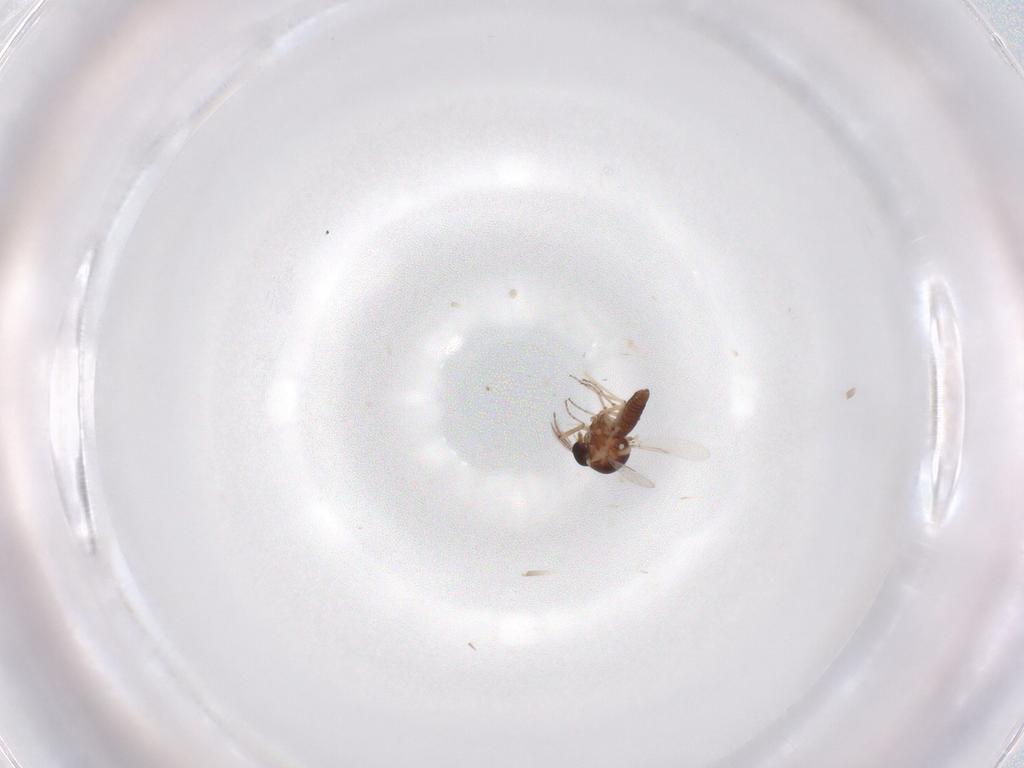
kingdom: Animalia
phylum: Arthropoda
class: Insecta
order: Diptera
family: Cecidomyiidae
